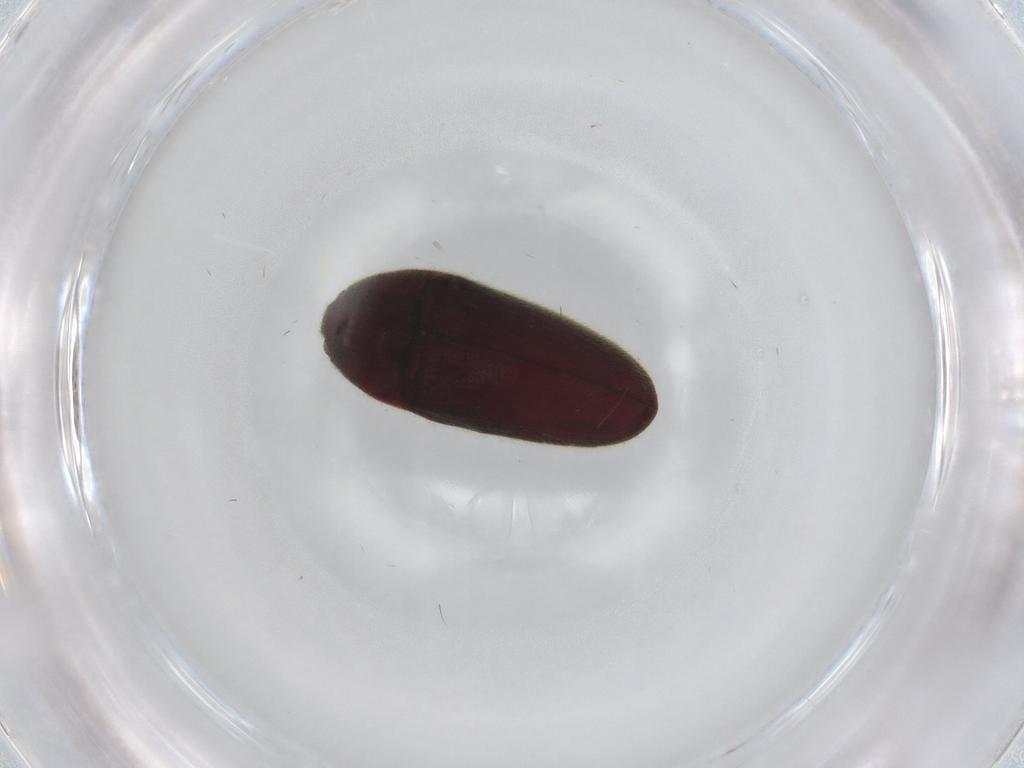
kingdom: Animalia
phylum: Arthropoda
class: Insecta
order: Coleoptera
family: Throscidae
